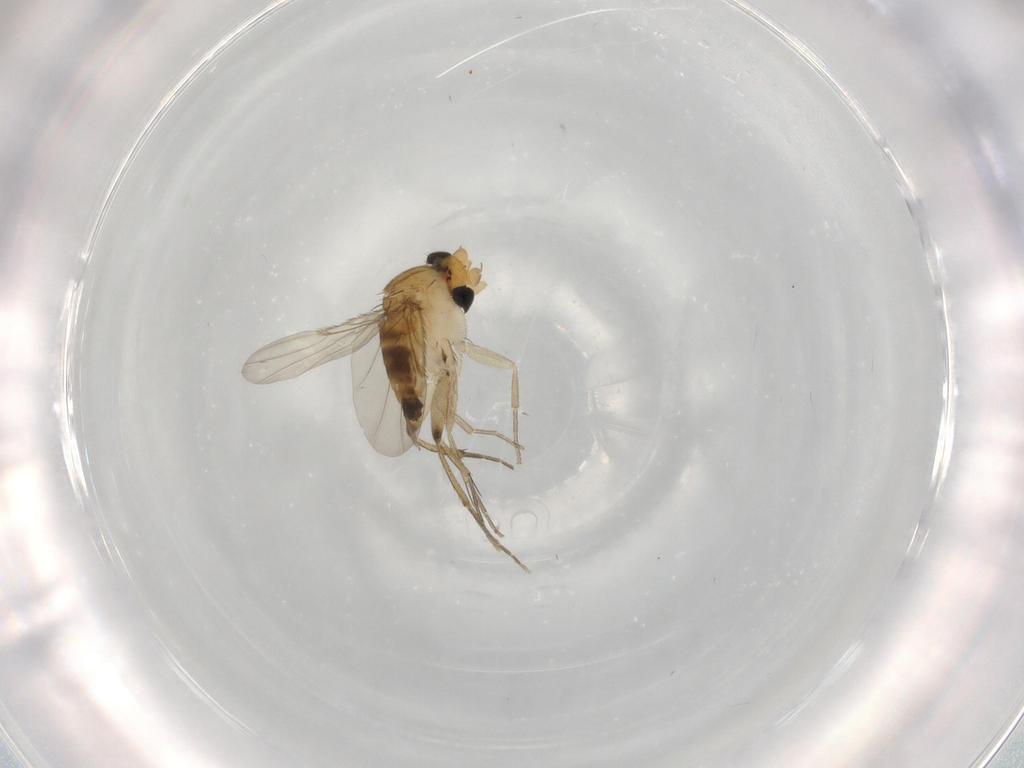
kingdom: Animalia
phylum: Arthropoda
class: Insecta
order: Diptera
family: Phoridae
